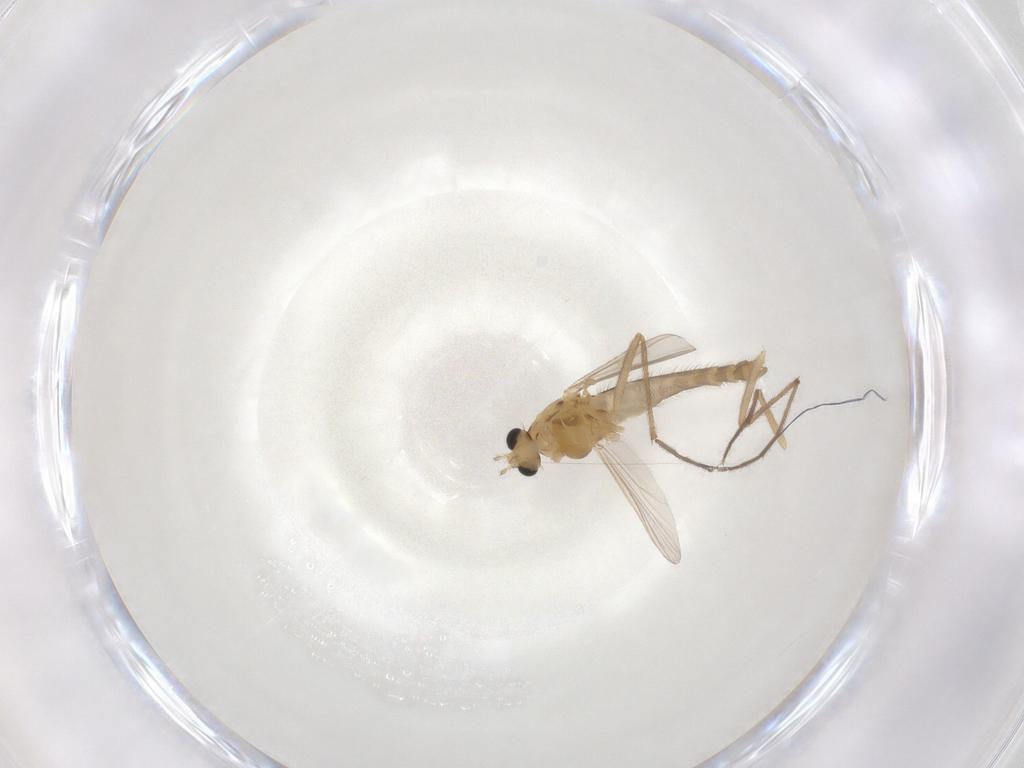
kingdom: Animalia
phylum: Arthropoda
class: Insecta
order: Diptera
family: Chironomidae
